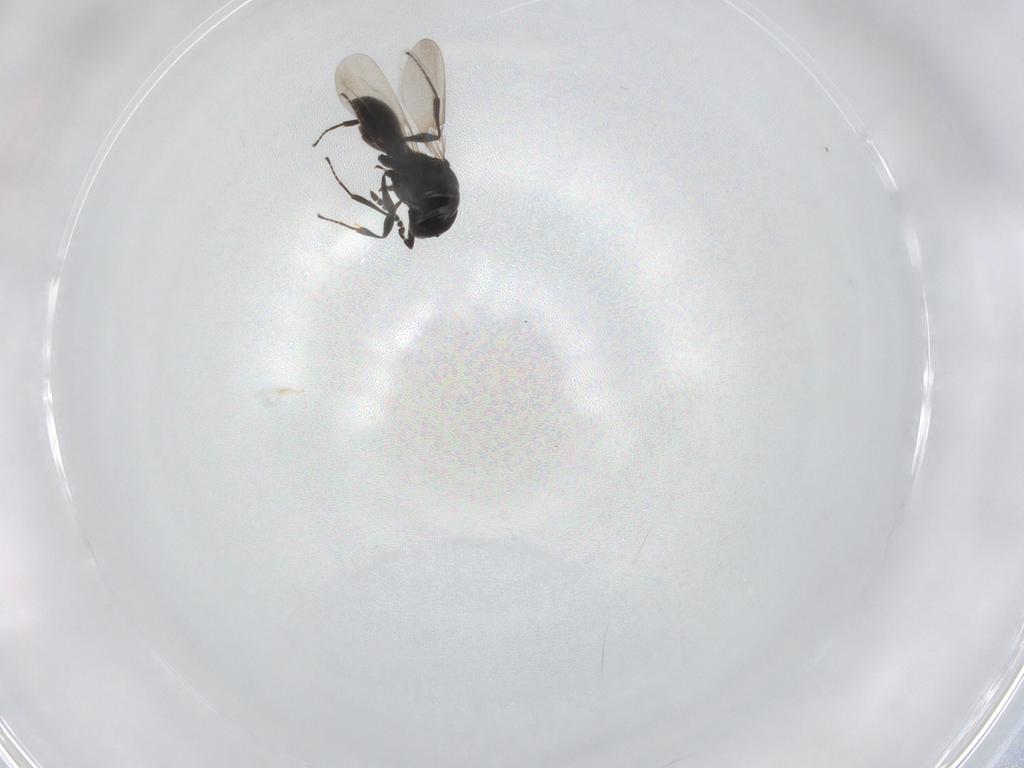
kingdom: Animalia
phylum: Arthropoda
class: Insecta
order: Hymenoptera
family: Platygastridae
